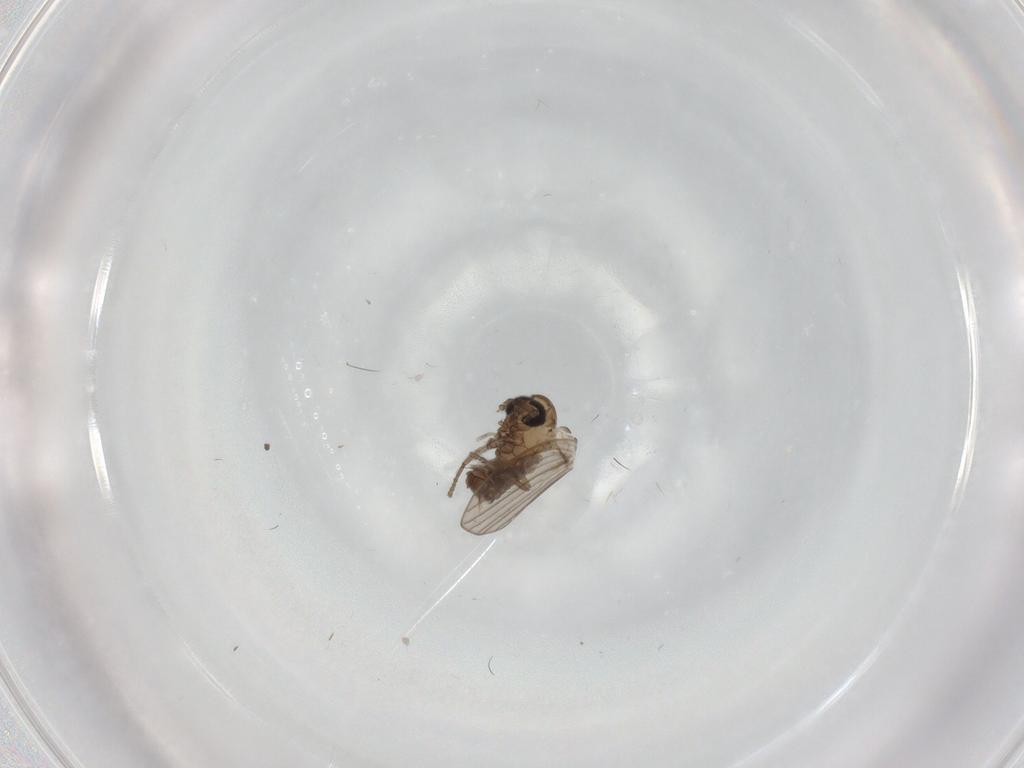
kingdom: Animalia
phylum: Arthropoda
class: Insecta
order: Diptera
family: Psychodidae
